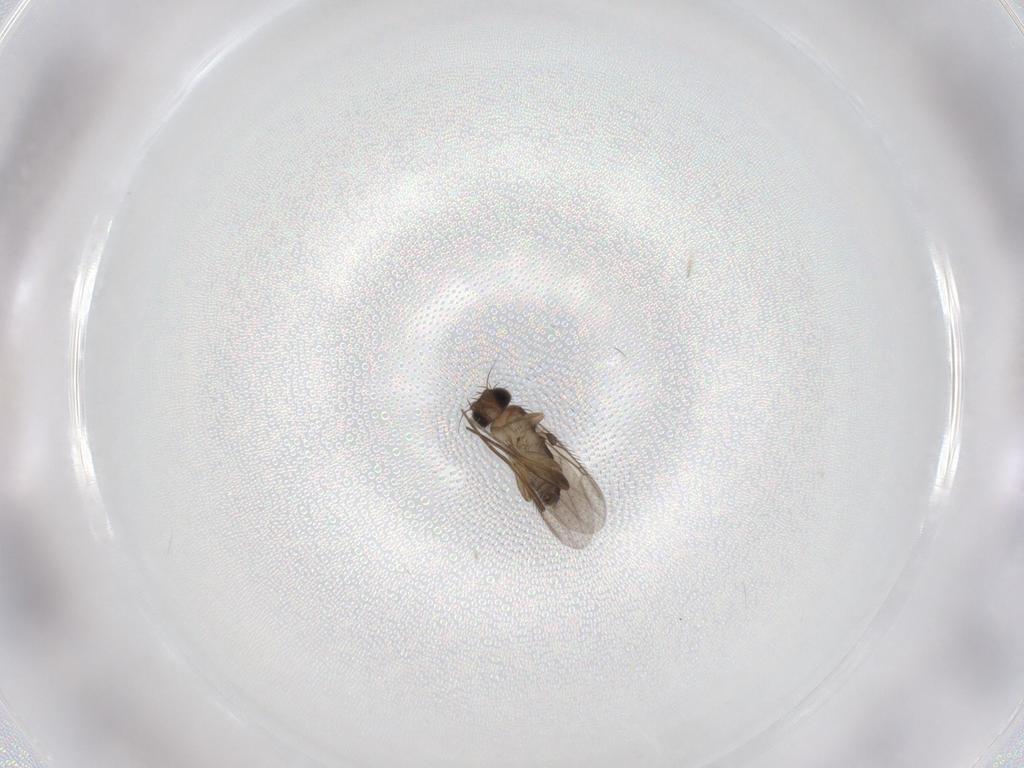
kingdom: Animalia
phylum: Arthropoda
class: Insecta
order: Diptera
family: Phoridae
